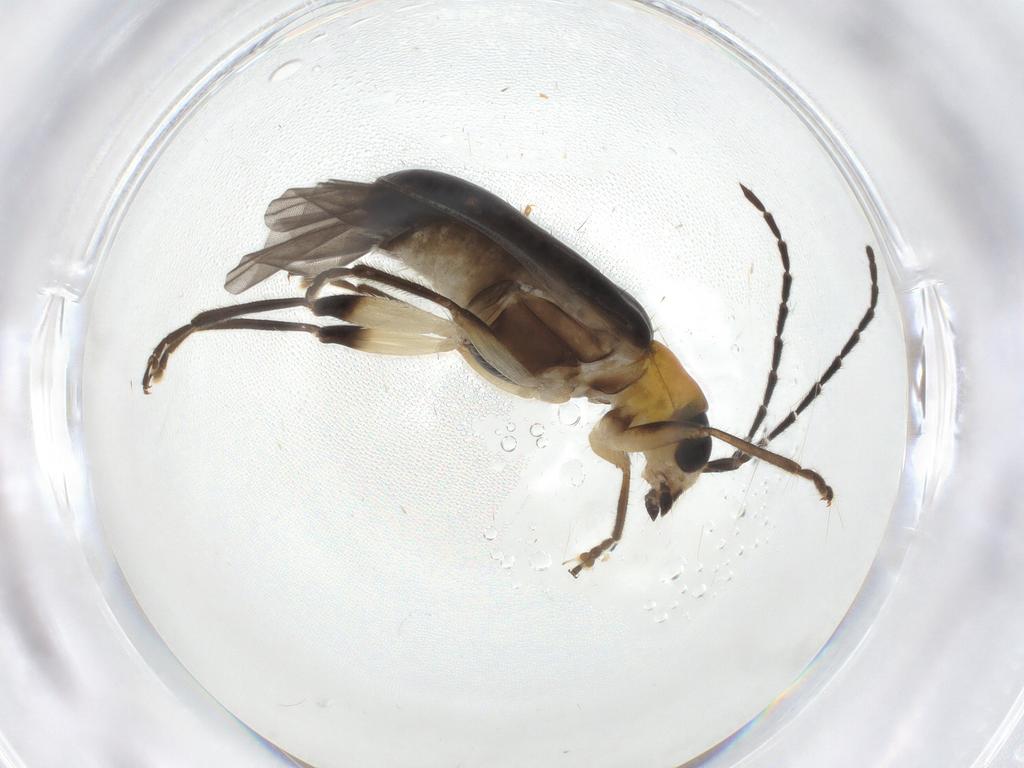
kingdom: Animalia
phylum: Arthropoda
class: Insecta
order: Coleoptera
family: Chrysomelidae
